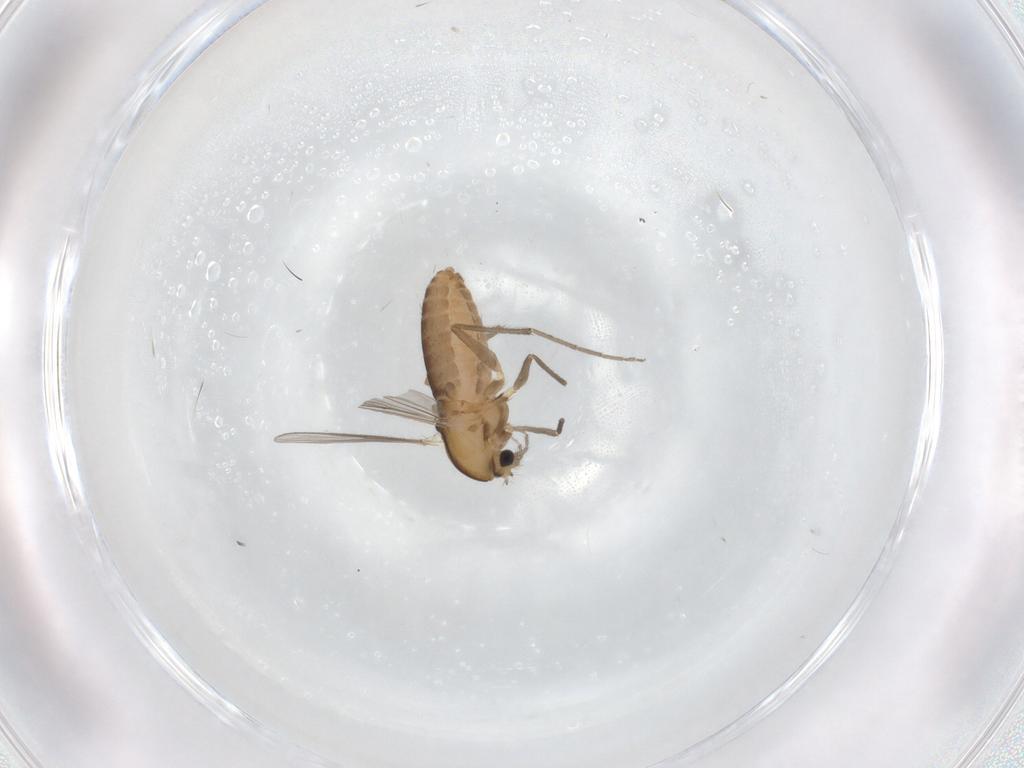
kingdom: Animalia
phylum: Arthropoda
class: Insecta
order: Diptera
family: Chironomidae
